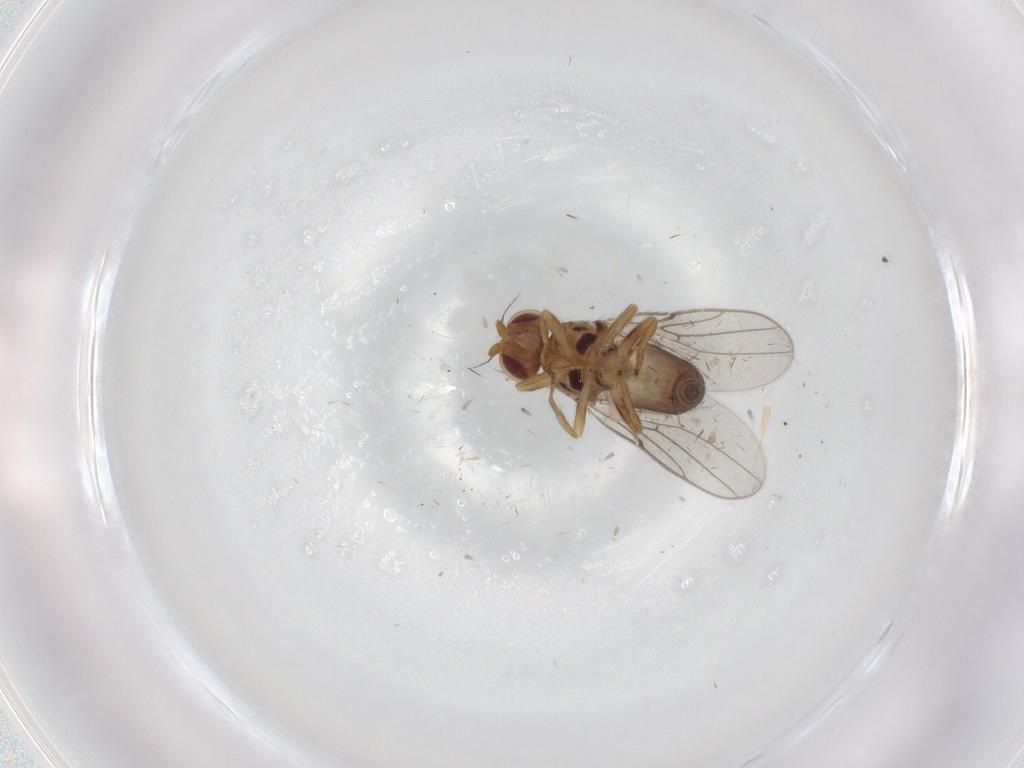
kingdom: Animalia
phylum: Arthropoda
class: Insecta
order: Diptera
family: Chloropidae
